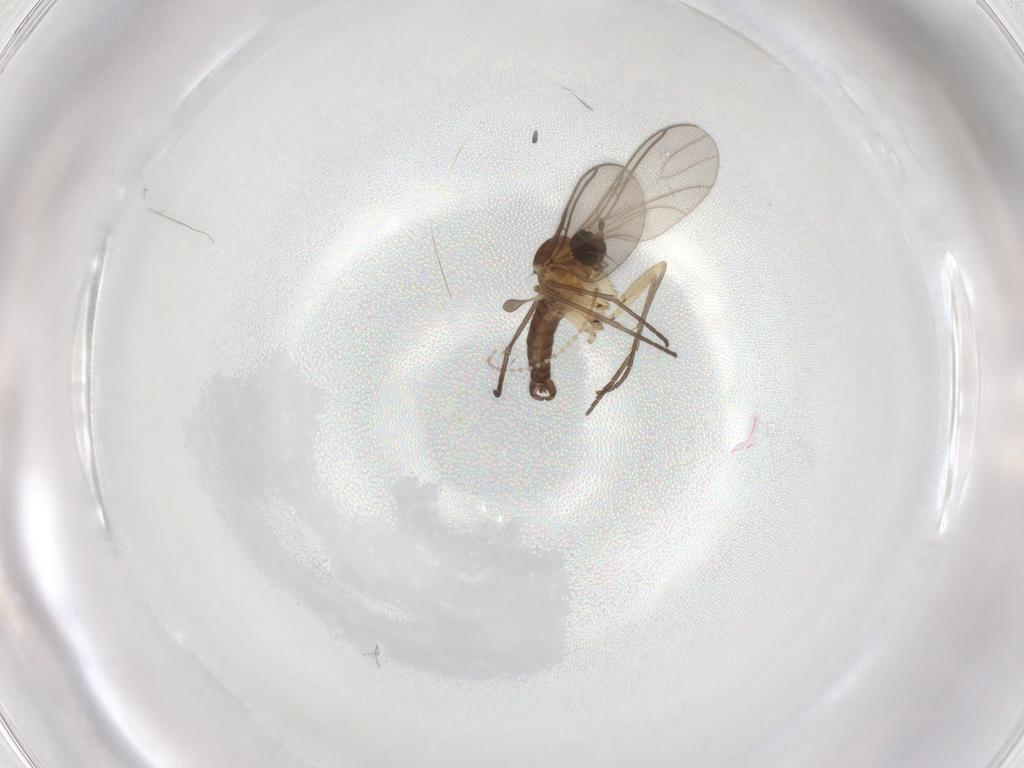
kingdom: Animalia
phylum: Arthropoda
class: Insecta
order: Diptera
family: Sciaridae
